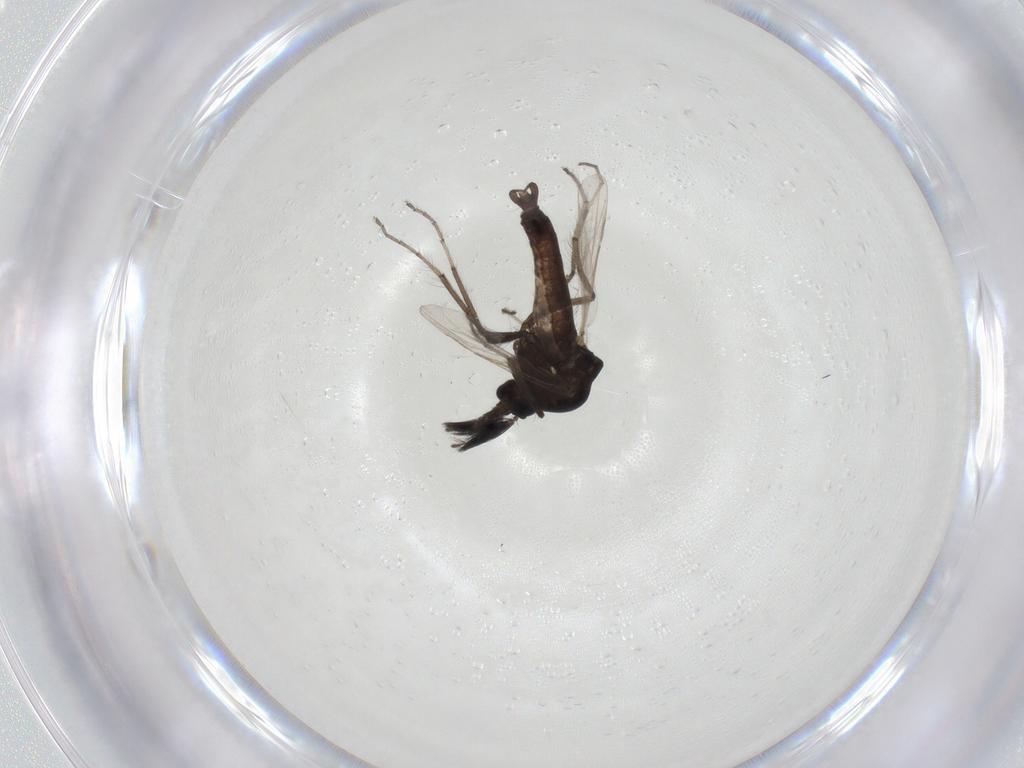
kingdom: Animalia
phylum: Arthropoda
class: Insecta
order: Diptera
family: Ceratopogonidae
